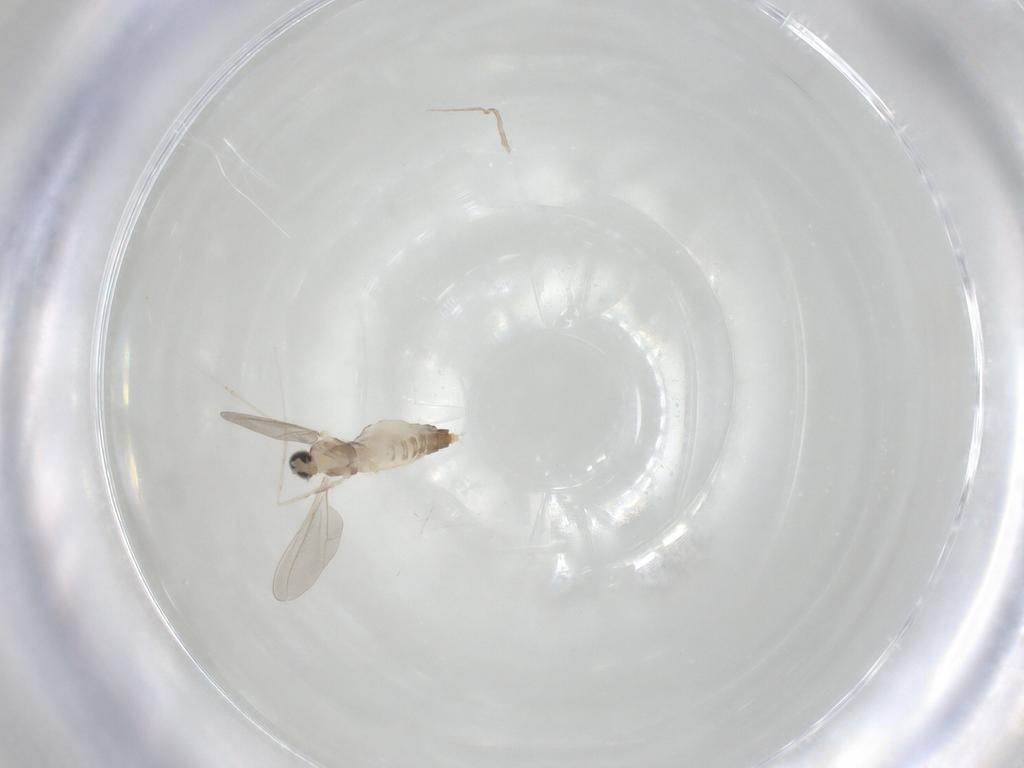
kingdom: Animalia
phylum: Arthropoda
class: Insecta
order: Diptera
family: Cecidomyiidae
